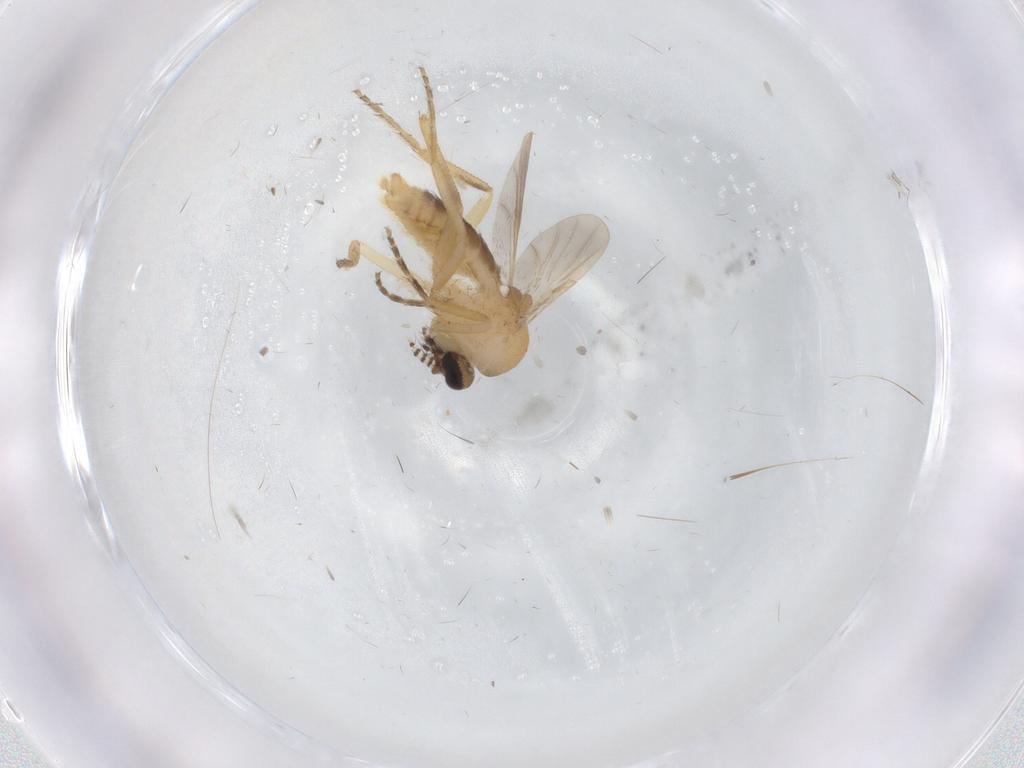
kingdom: Animalia
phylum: Arthropoda
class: Insecta
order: Diptera
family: Ceratopogonidae
